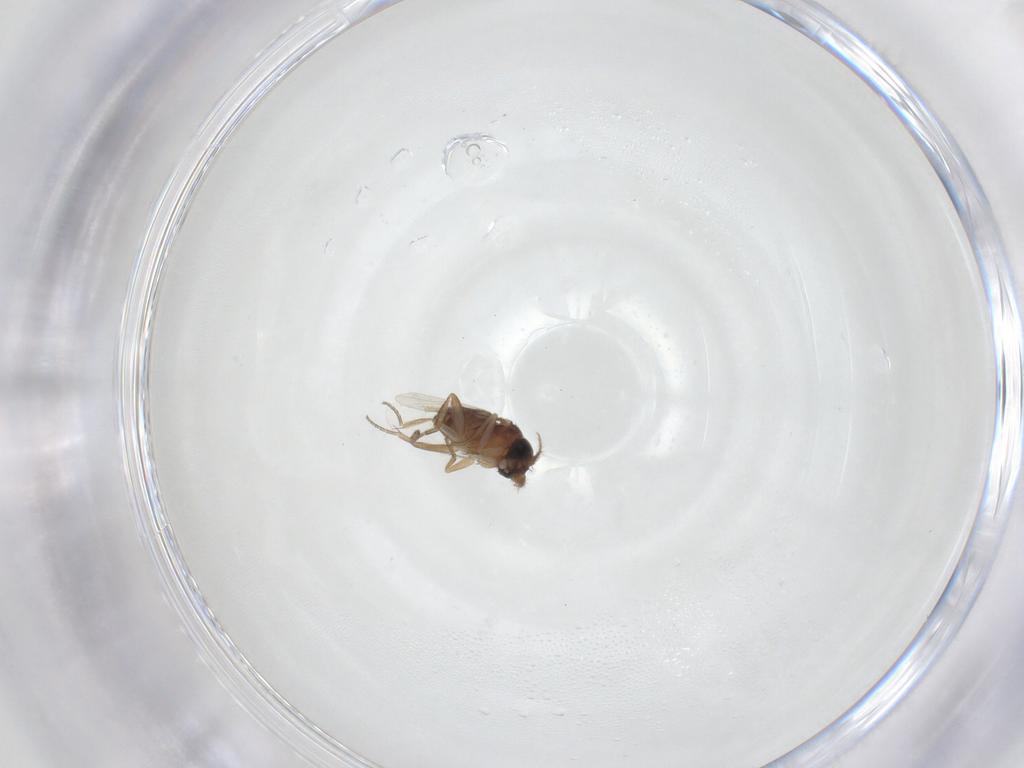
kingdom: Animalia
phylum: Arthropoda
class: Insecta
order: Diptera
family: Phoridae
